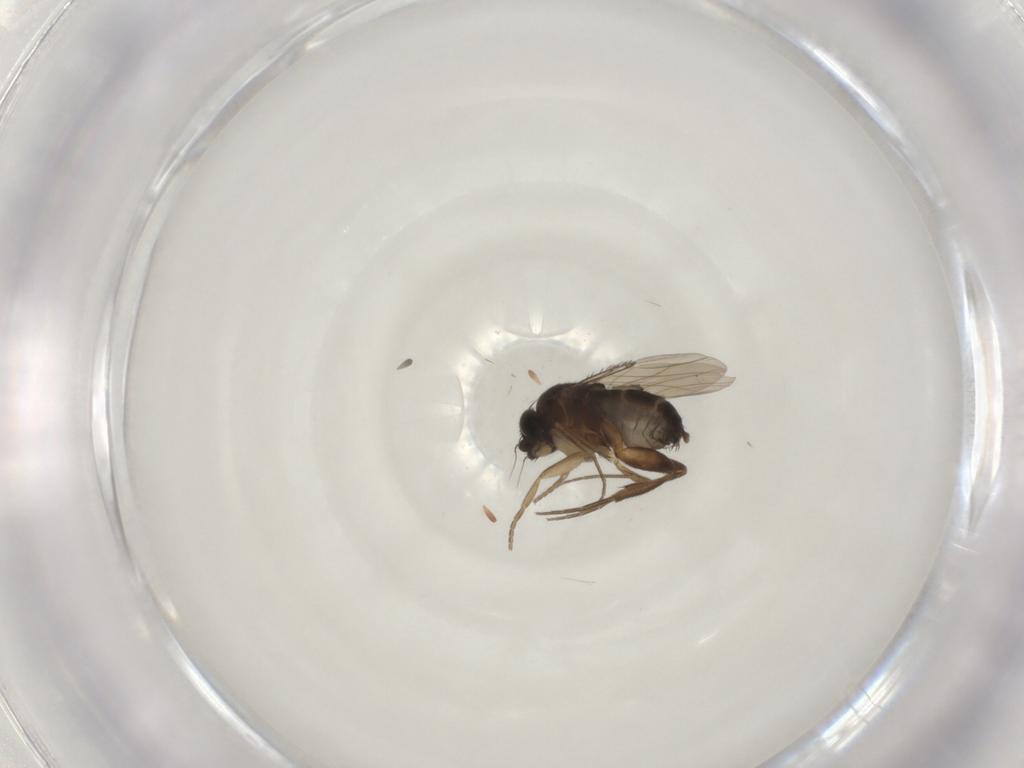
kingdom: Animalia
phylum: Arthropoda
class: Insecta
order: Diptera
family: Phoridae
